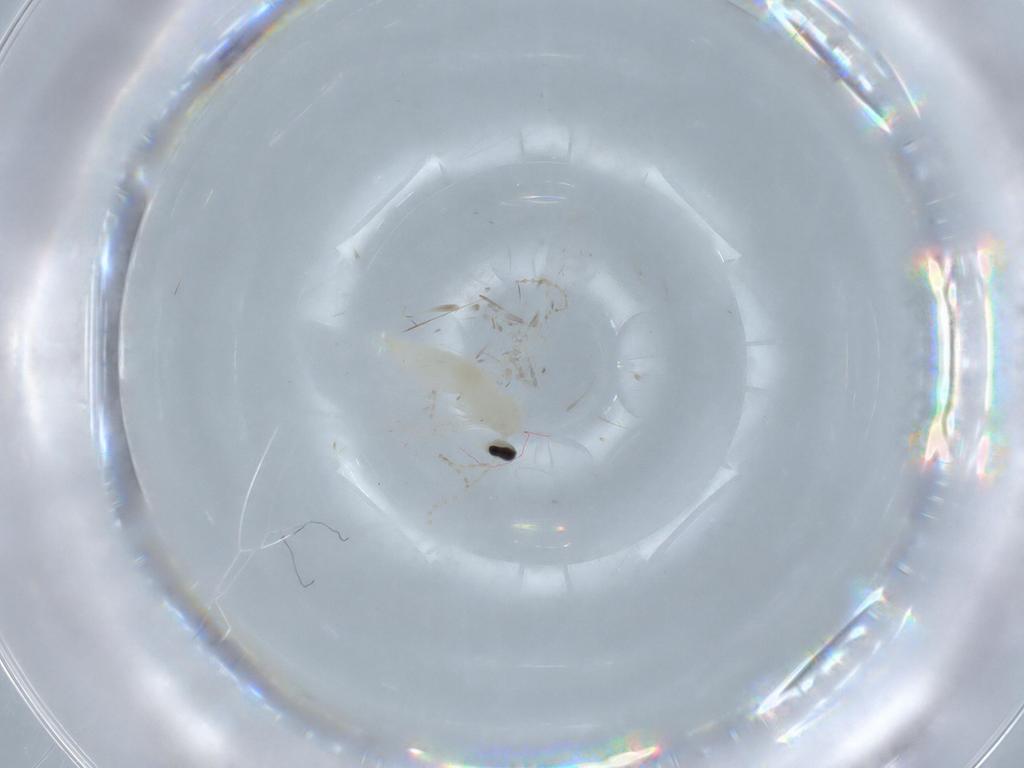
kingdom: Animalia
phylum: Arthropoda
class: Insecta
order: Diptera
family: Cecidomyiidae
